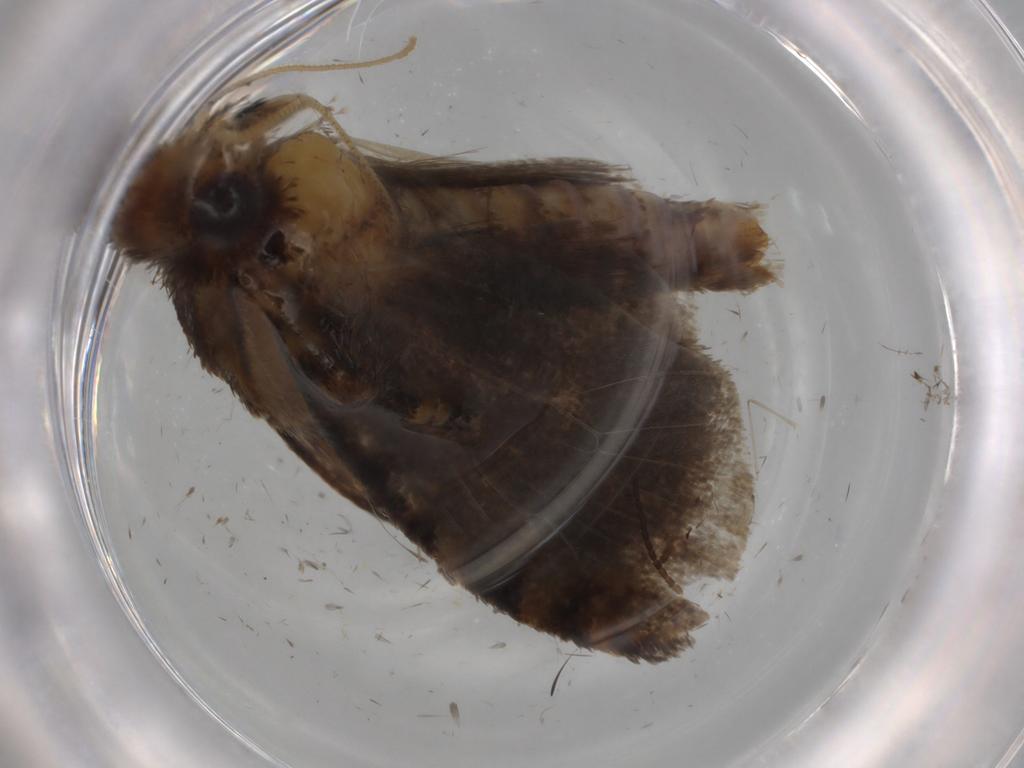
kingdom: Animalia
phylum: Arthropoda
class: Insecta
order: Lepidoptera
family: Tineidae
